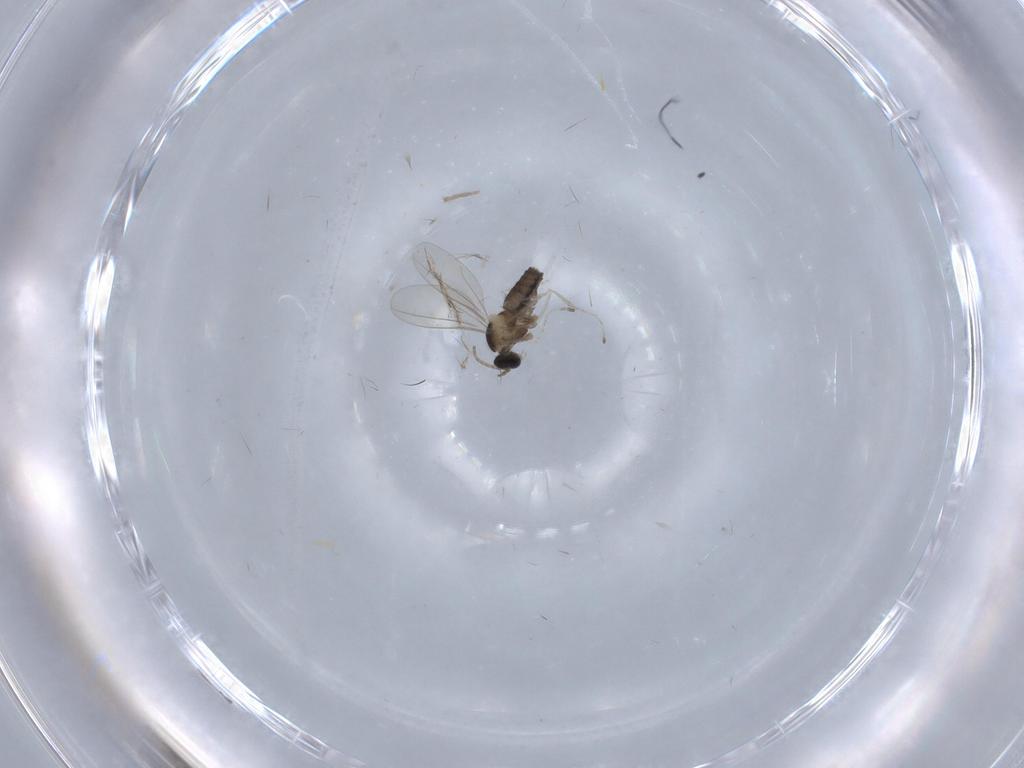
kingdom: Animalia
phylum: Arthropoda
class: Insecta
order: Diptera
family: Cecidomyiidae
